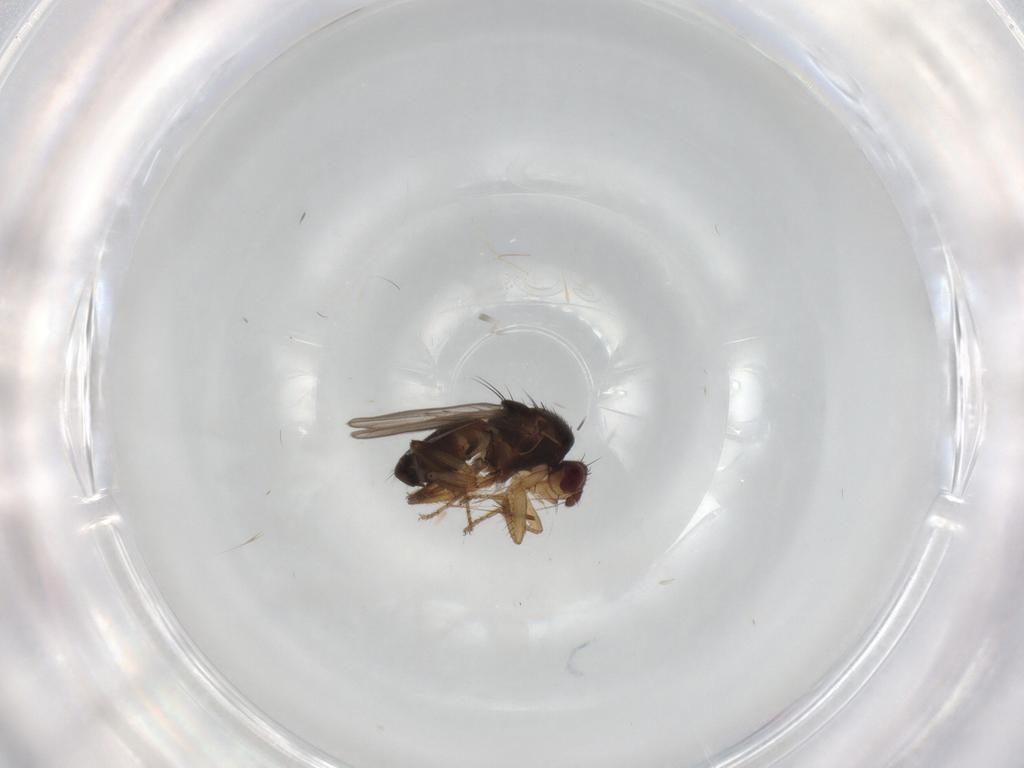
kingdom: Animalia
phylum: Arthropoda
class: Insecta
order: Diptera
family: Sphaeroceridae
